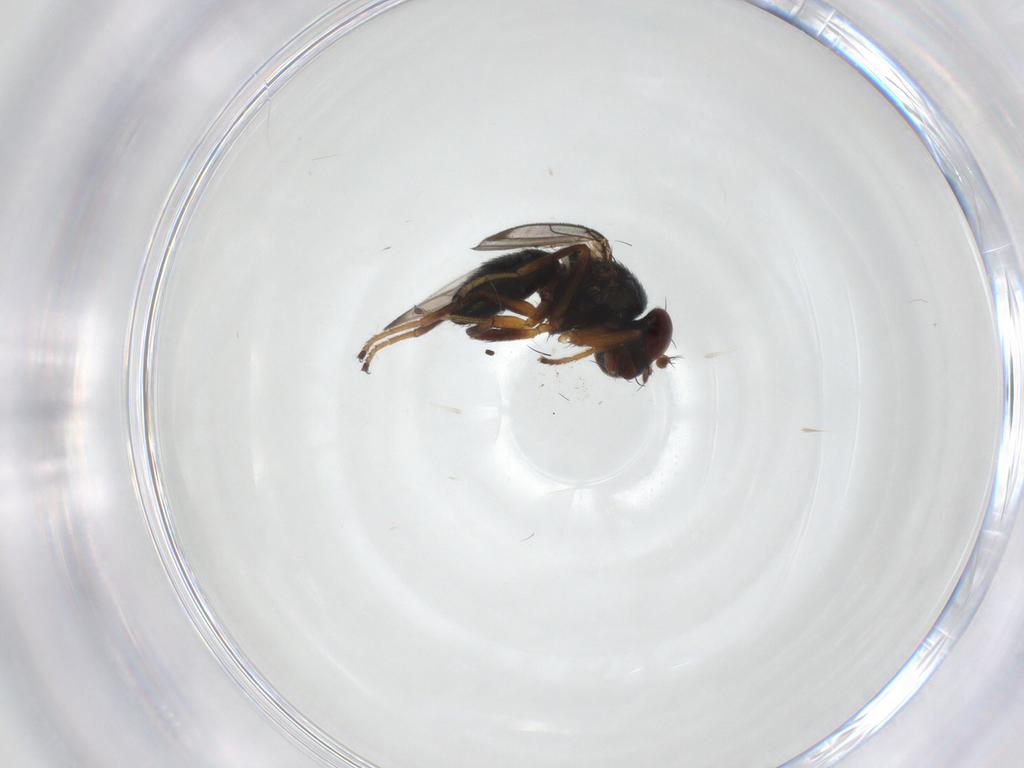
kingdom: Animalia
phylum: Arthropoda
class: Insecta
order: Diptera
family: Ephydridae
